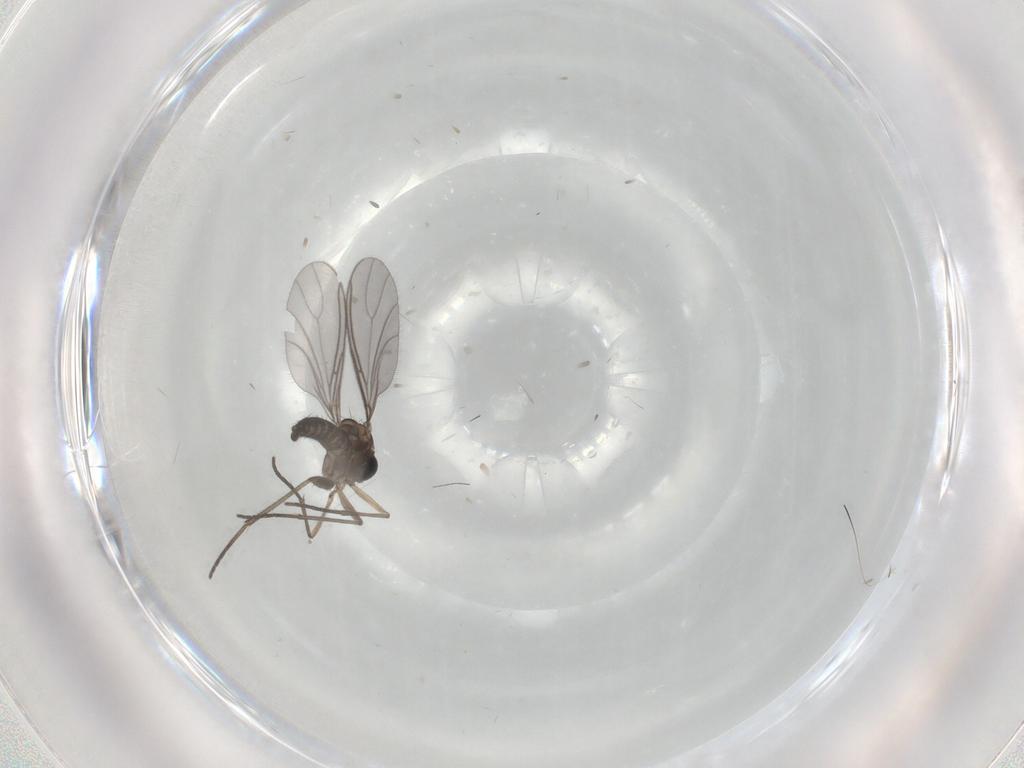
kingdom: Animalia
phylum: Arthropoda
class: Insecta
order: Diptera
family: Sciaridae
